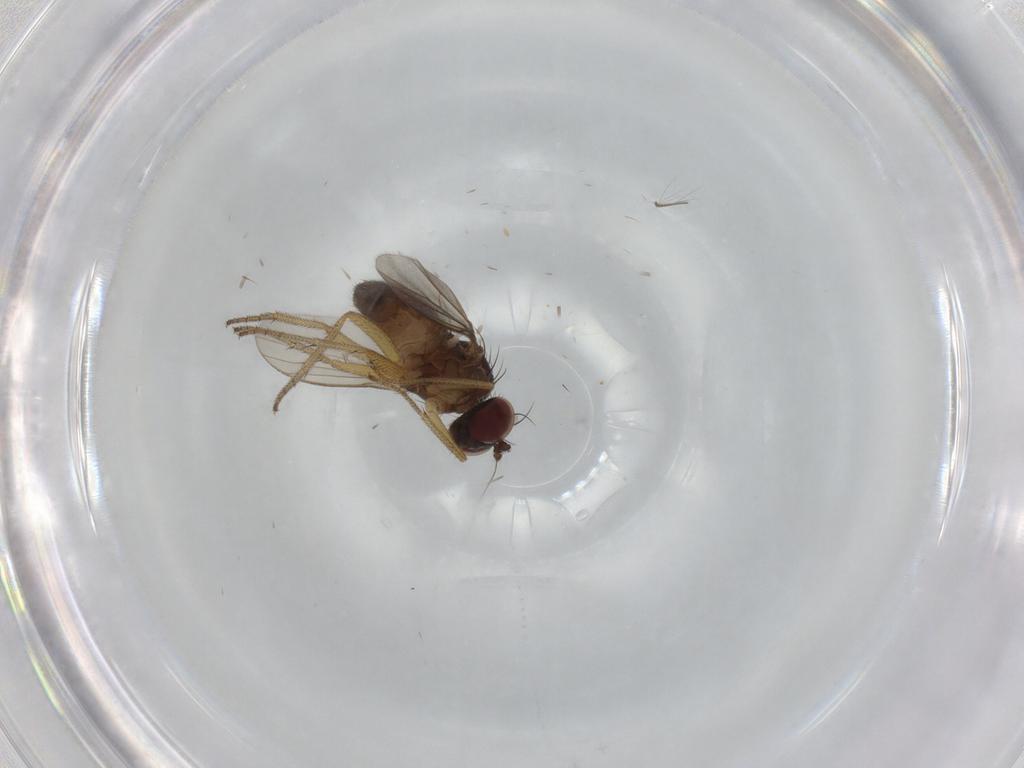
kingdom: Animalia
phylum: Arthropoda
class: Insecta
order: Diptera
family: Dolichopodidae
